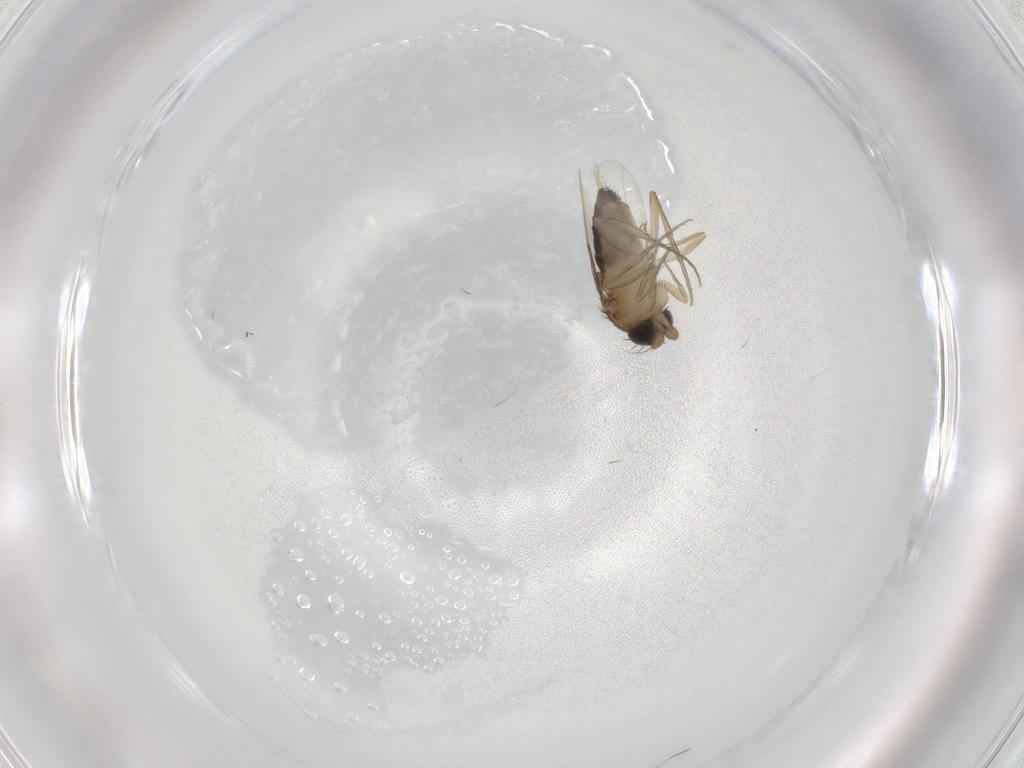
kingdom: Animalia
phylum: Arthropoda
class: Insecta
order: Diptera
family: Phoridae
